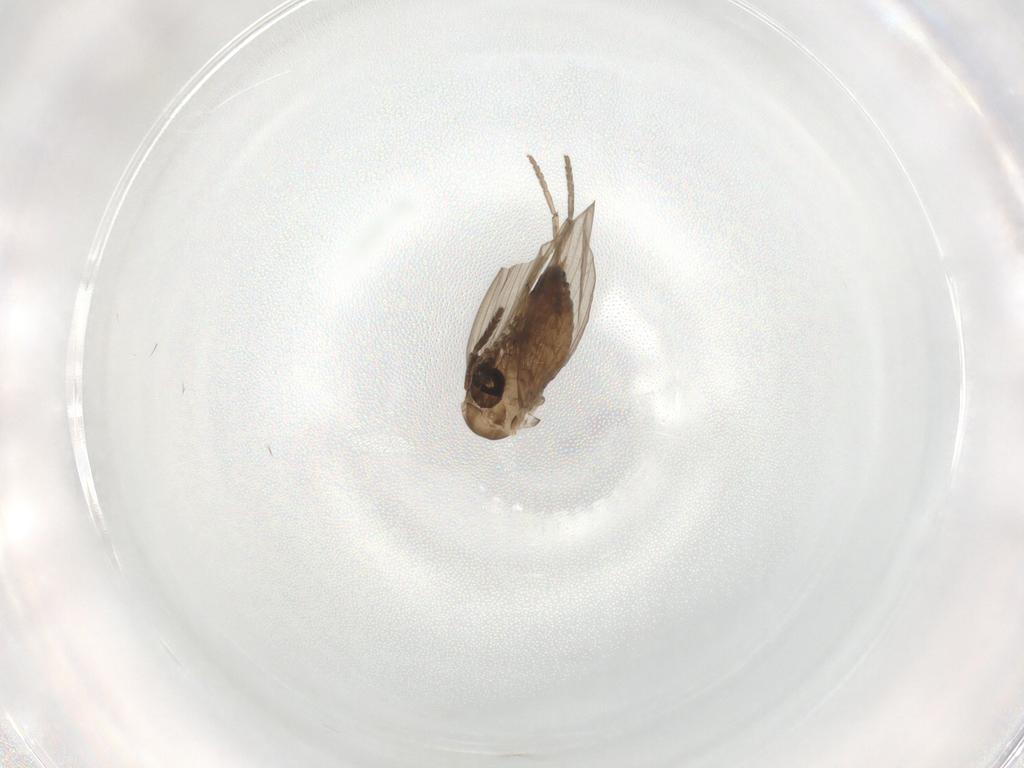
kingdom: Animalia
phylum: Arthropoda
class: Insecta
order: Diptera
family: Psychodidae
